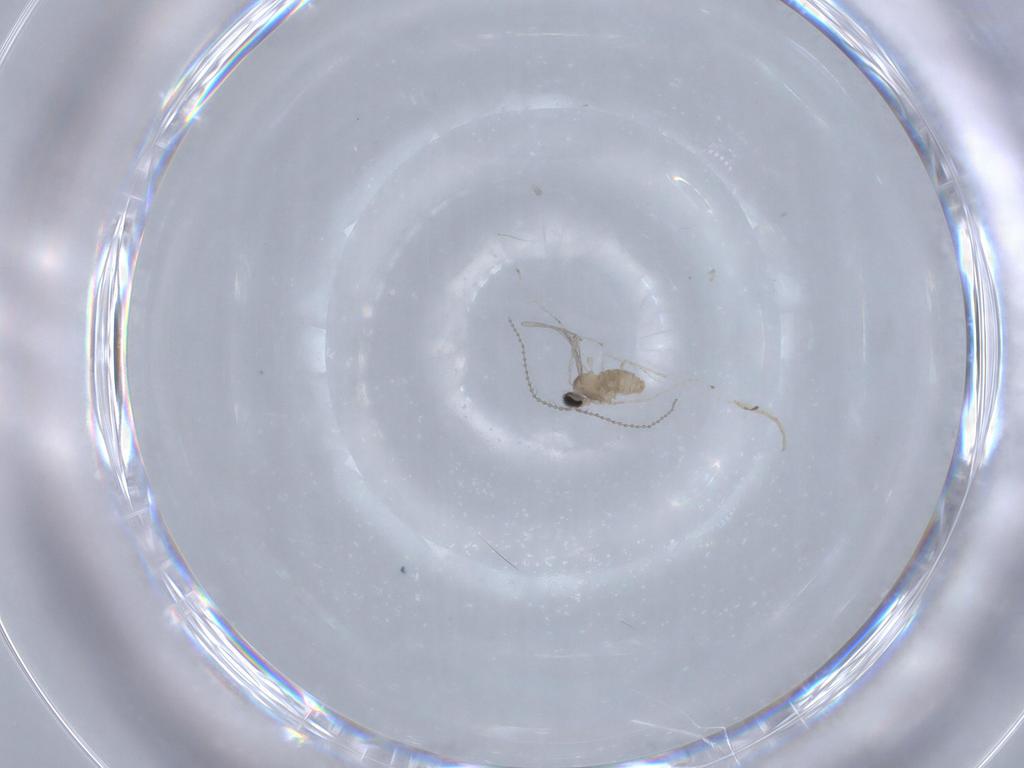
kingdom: Animalia
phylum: Arthropoda
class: Insecta
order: Diptera
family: Cecidomyiidae
